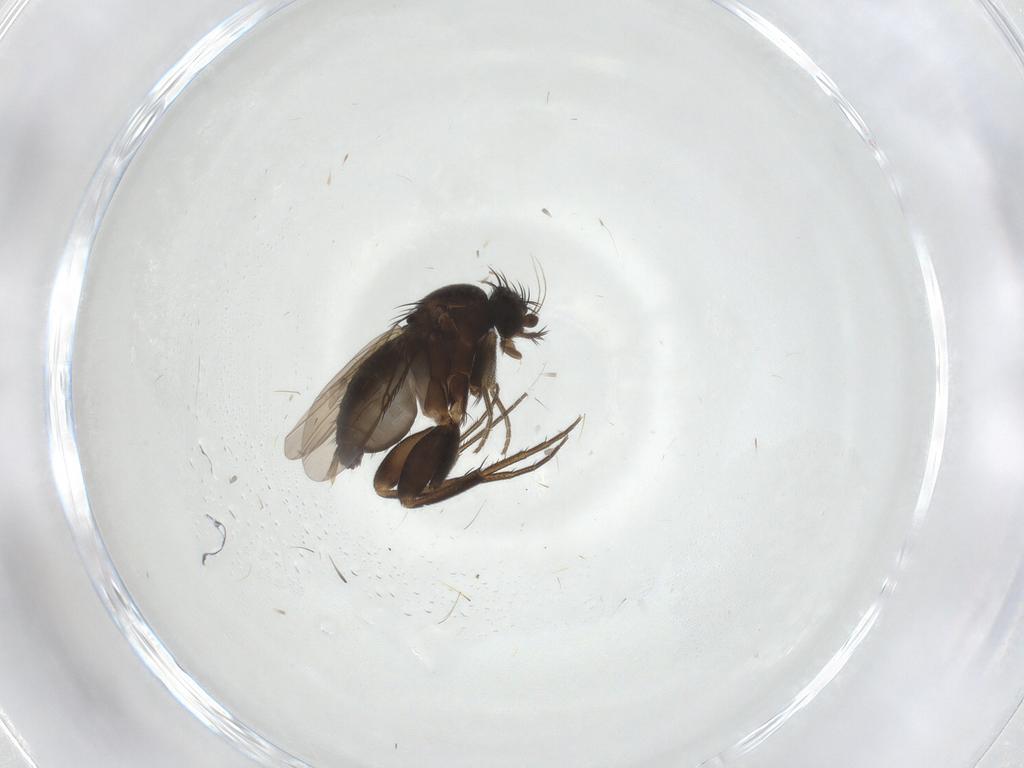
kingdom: Animalia
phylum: Arthropoda
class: Insecta
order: Diptera
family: Phoridae
